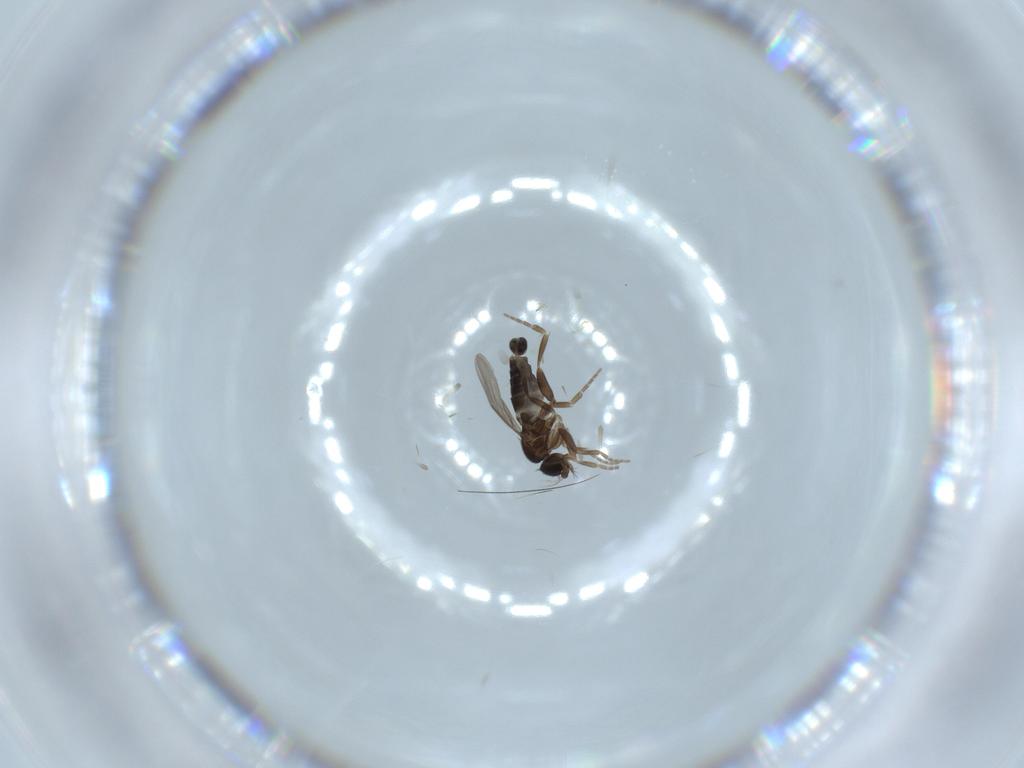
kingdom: Animalia
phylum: Arthropoda
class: Insecta
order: Diptera
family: Phoridae
